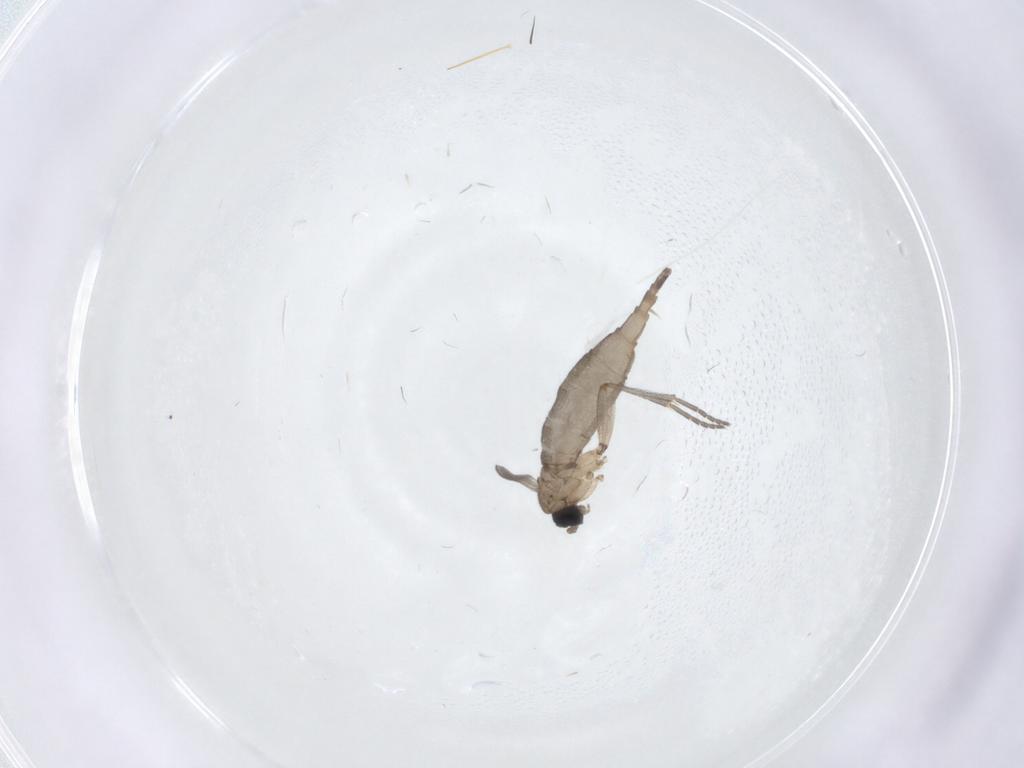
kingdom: Animalia
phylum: Arthropoda
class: Insecta
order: Diptera
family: Sciaridae
